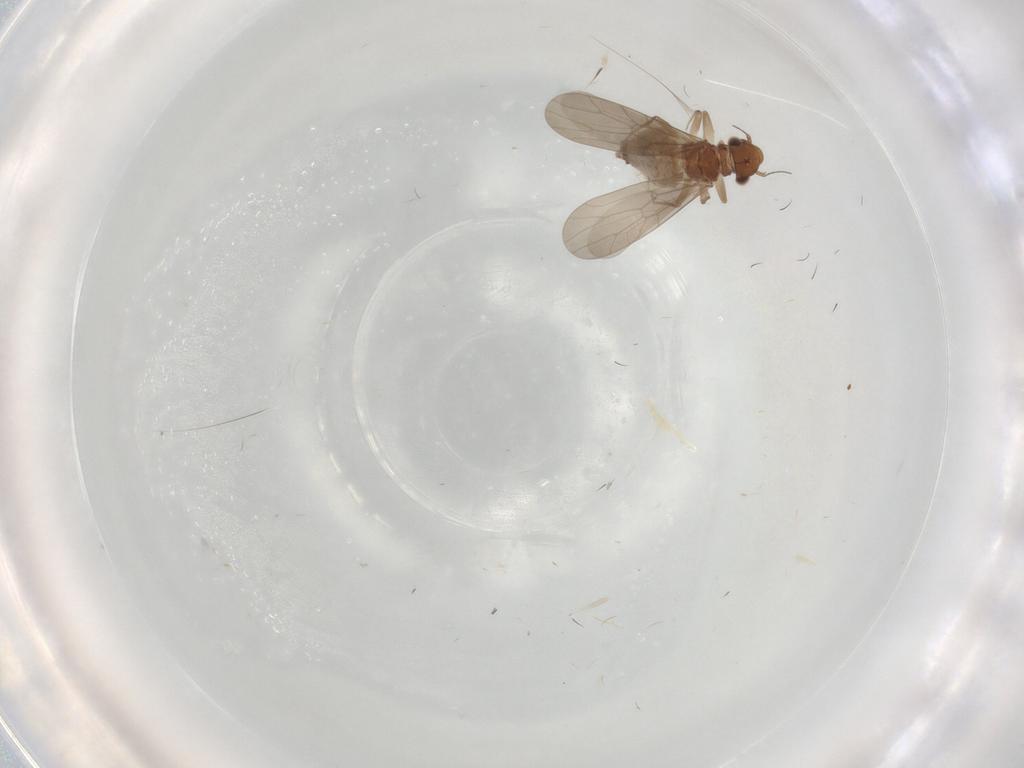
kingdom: Animalia
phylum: Arthropoda
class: Insecta
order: Psocodea
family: Lepidopsocidae
